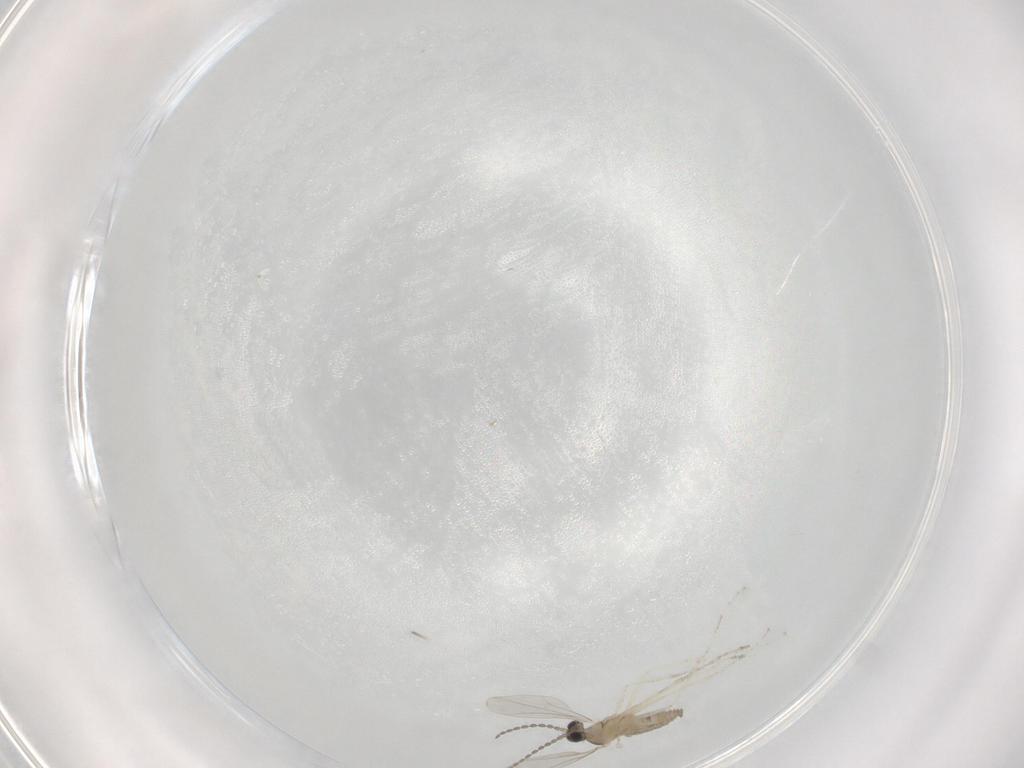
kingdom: Animalia
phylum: Arthropoda
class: Insecta
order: Diptera
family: Cecidomyiidae
